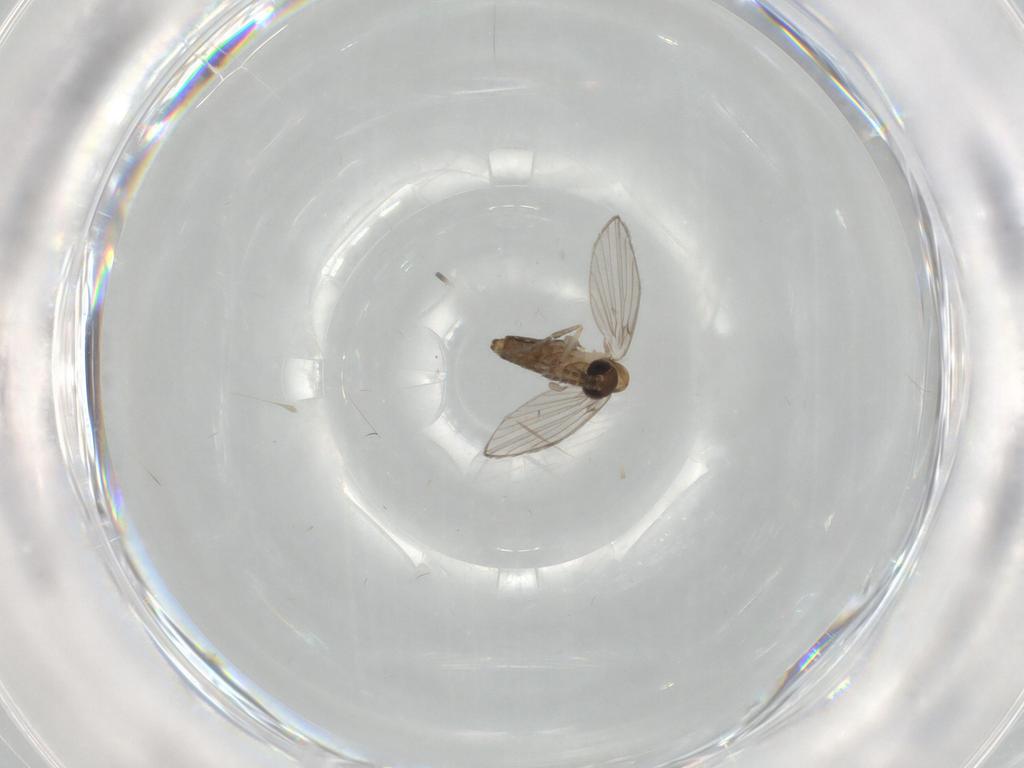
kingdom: Animalia
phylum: Arthropoda
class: Insecta
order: Diptera
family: Psychodidae
